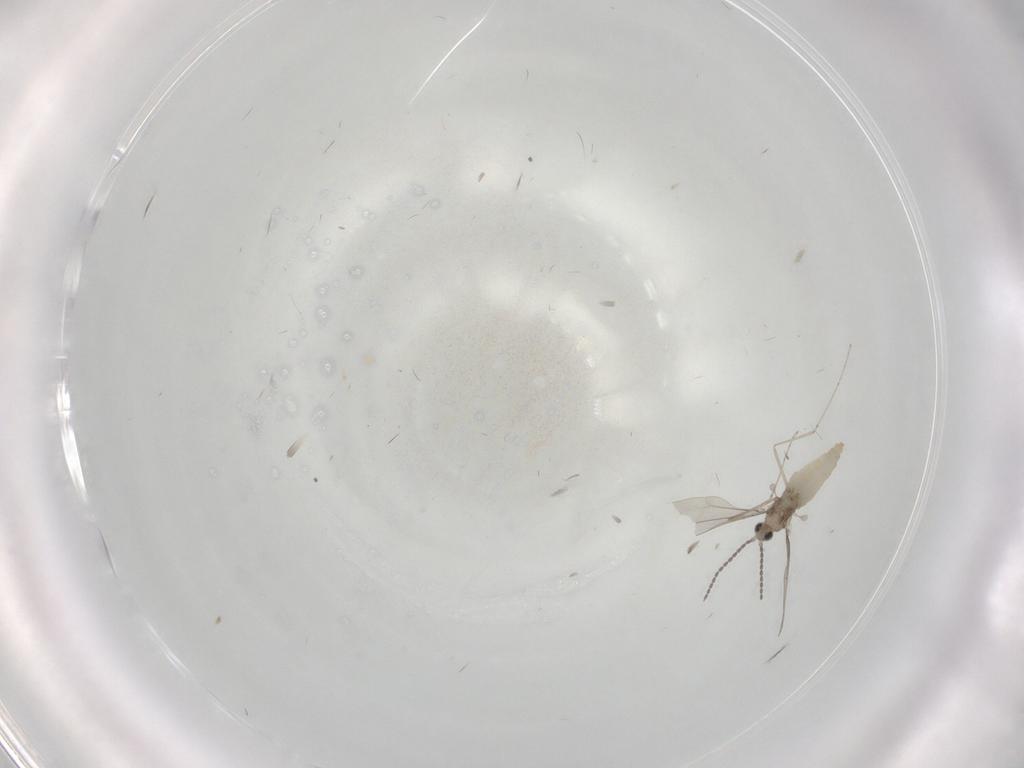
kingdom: Animalia
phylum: Arthropoda
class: Insecta
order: Diptera
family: Cecidomyiidae
